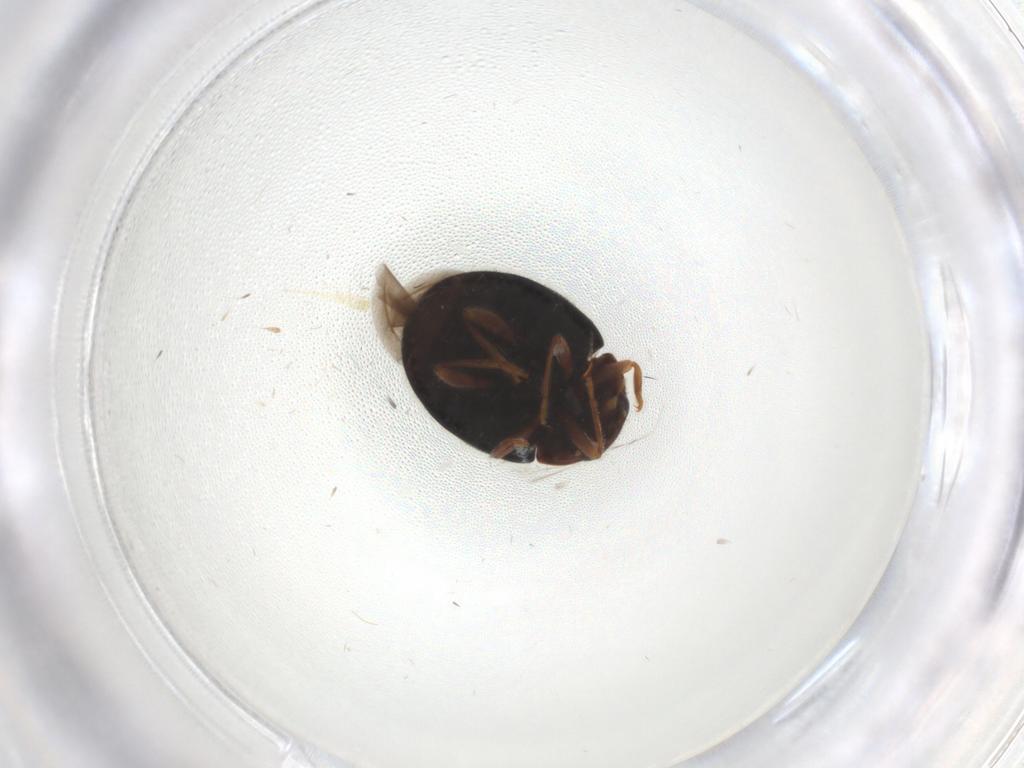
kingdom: Animalia
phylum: Arthropoda
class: Insecta
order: Coleoptera
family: Coccinellidae
